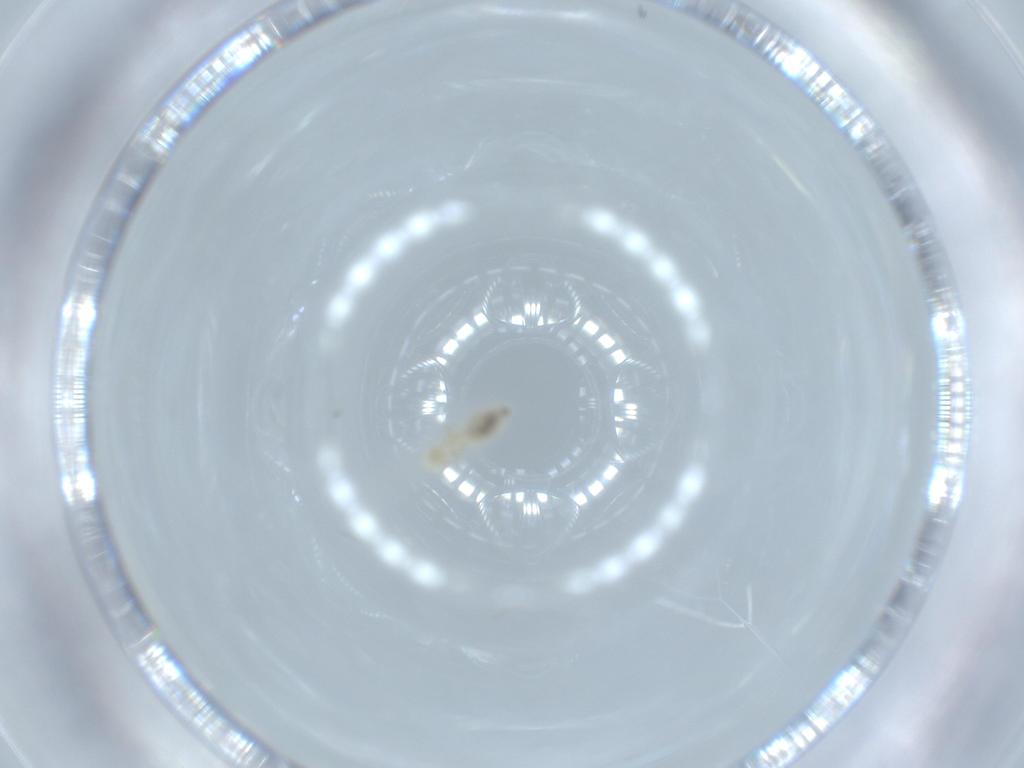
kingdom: Animalia
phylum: Arthropoda
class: Insecta
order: Psocodea
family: Caeciliusidae
